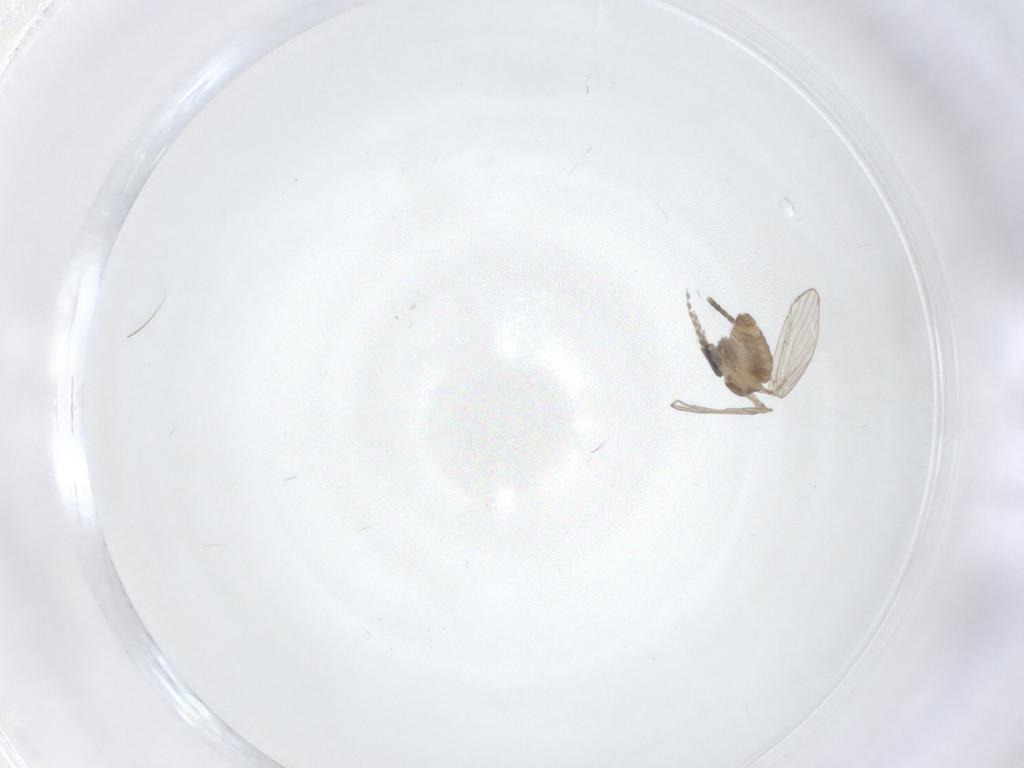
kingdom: Animalia
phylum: Arthropoda
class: Insecta
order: Diptera
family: Psychodidae
